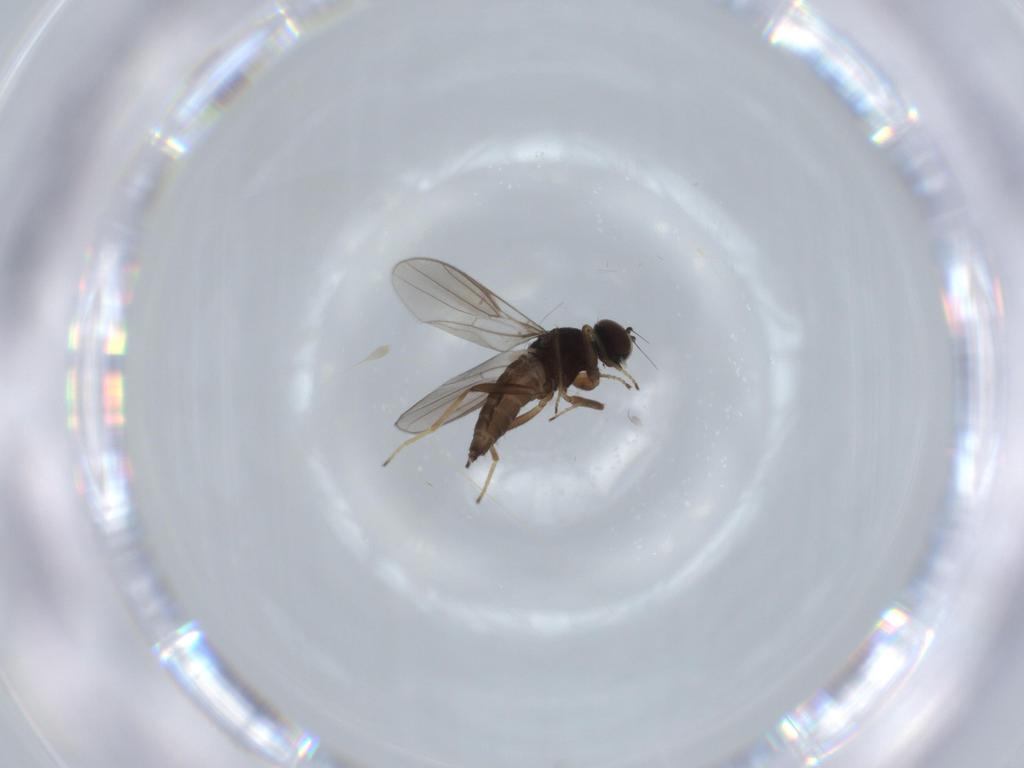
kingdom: Animalia
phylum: Arthropoda
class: Insecta
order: Diptera
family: Hybotidae
